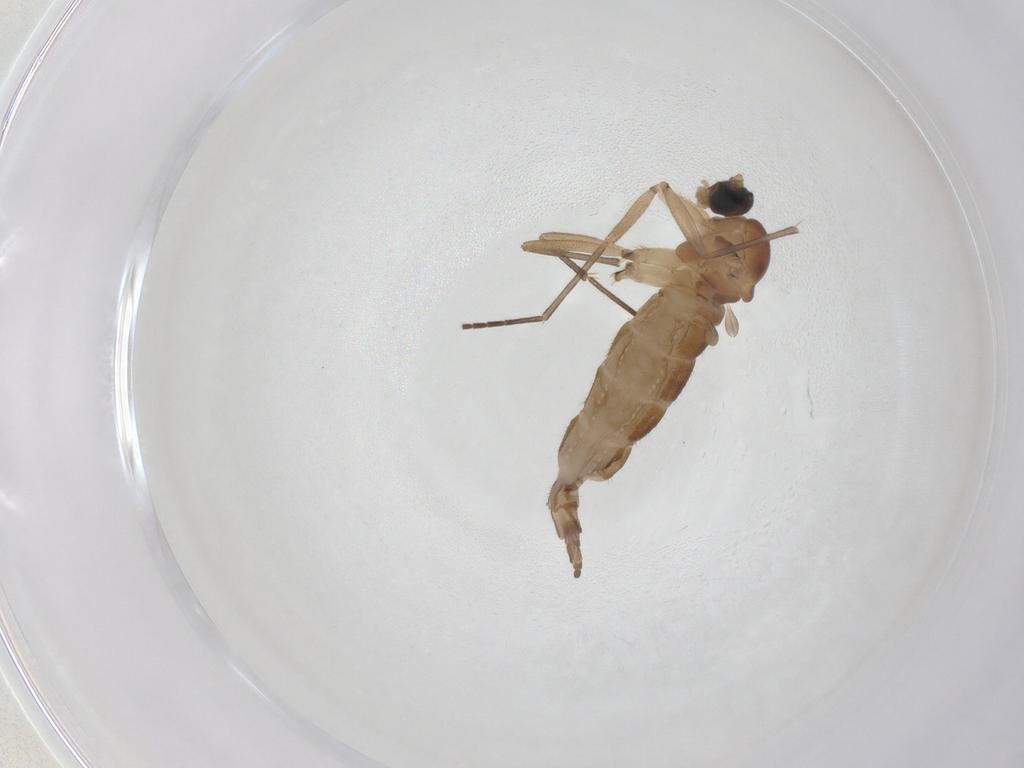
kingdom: Animalia
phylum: Arthropoda
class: Insecta
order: Diptera
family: Sciaridae
